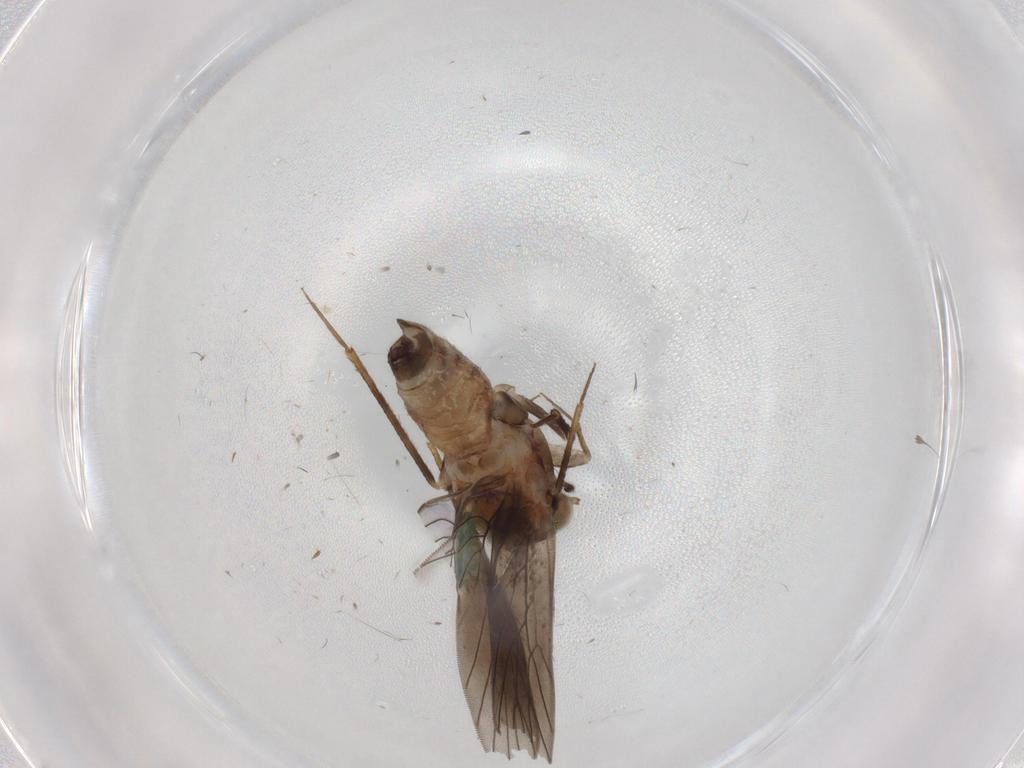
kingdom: Animalia
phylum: Arthropoda
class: Insecta
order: Psocodea
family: Lepidopsocidae
